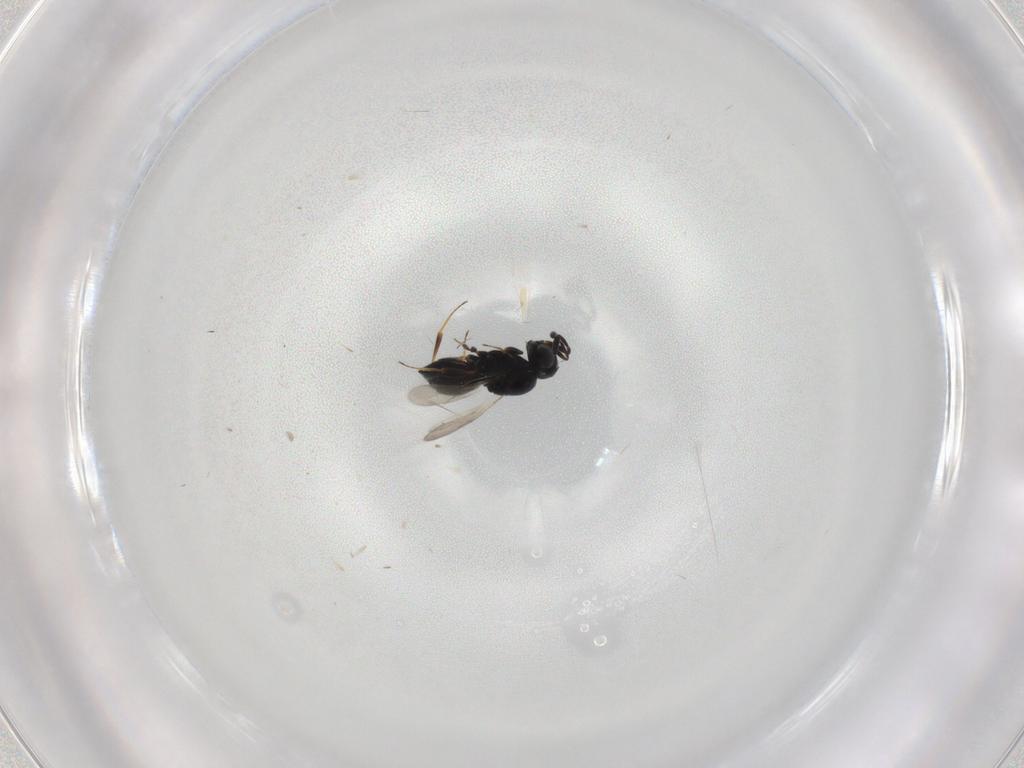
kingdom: Animalia
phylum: Arthropoda
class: Insecta
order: Hymenoptera
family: Scelionidae
